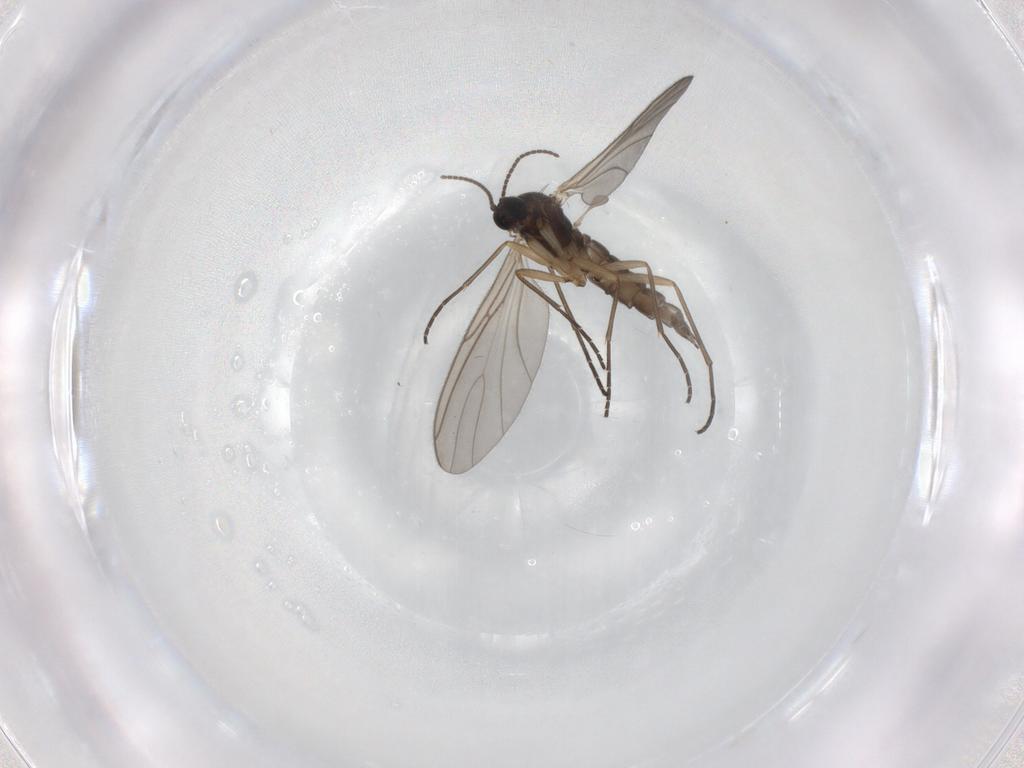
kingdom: Animalia
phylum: Arthropoda
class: Insecta
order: Diptera
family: Sciaridae
